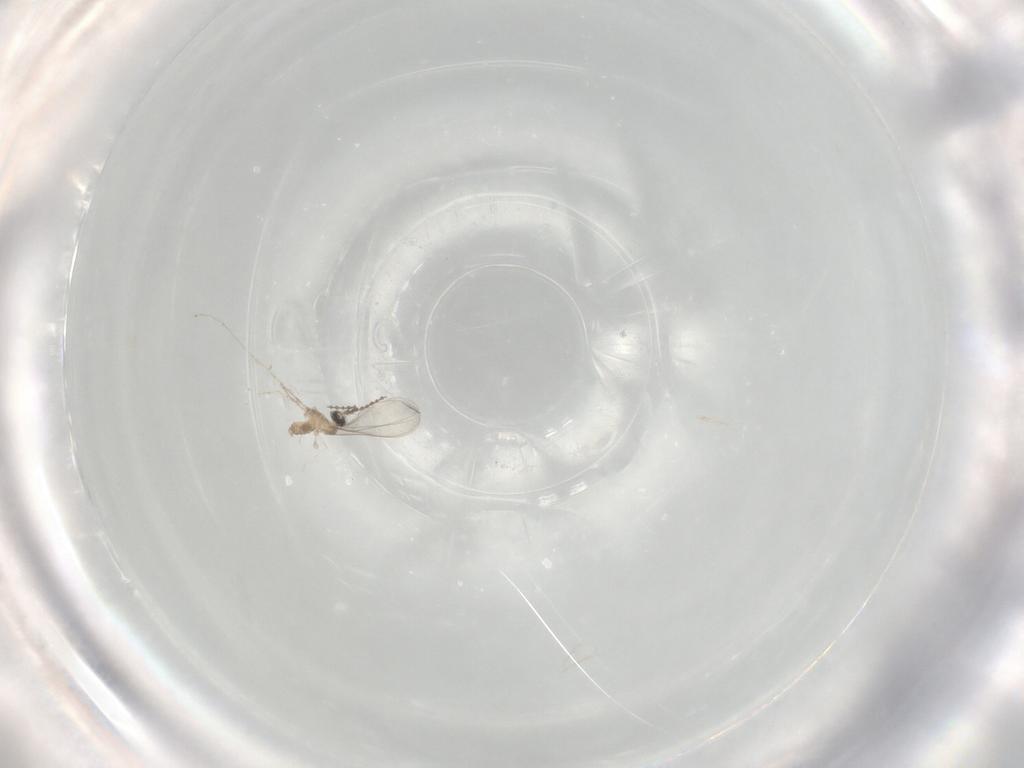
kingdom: Animalia
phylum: Arthropoda
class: Insecta
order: Diptera
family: Cecidomyiidae
